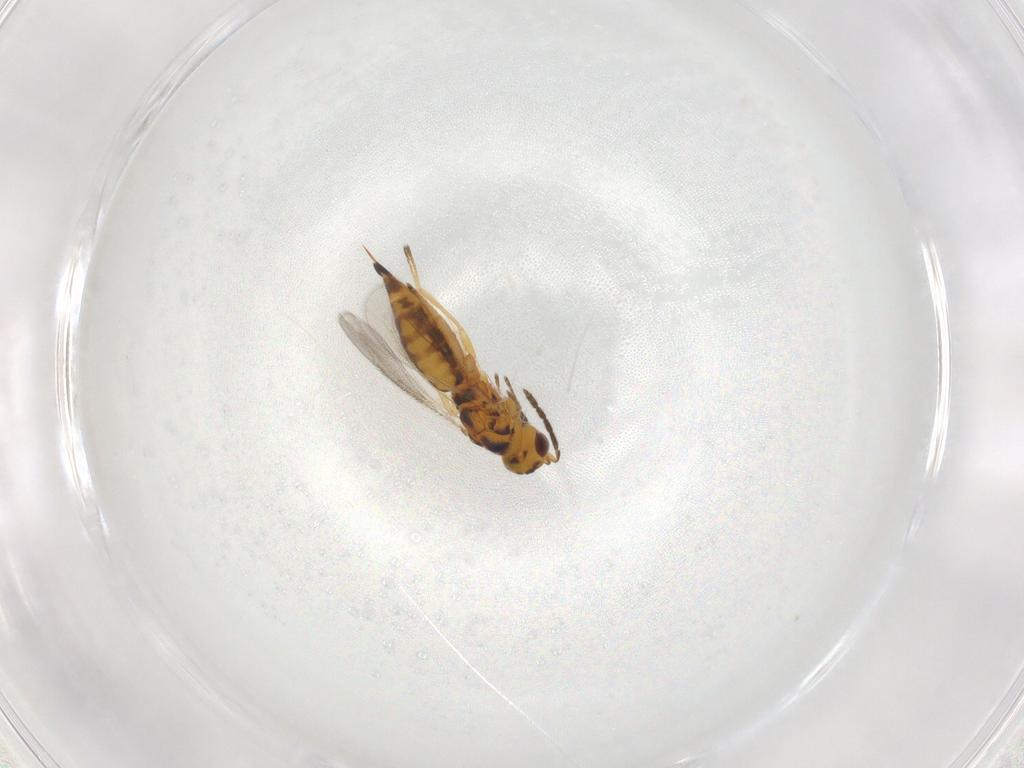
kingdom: Animalia
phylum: Arthropoda
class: Insecta
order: Hymenoptera
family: Eulophidae
